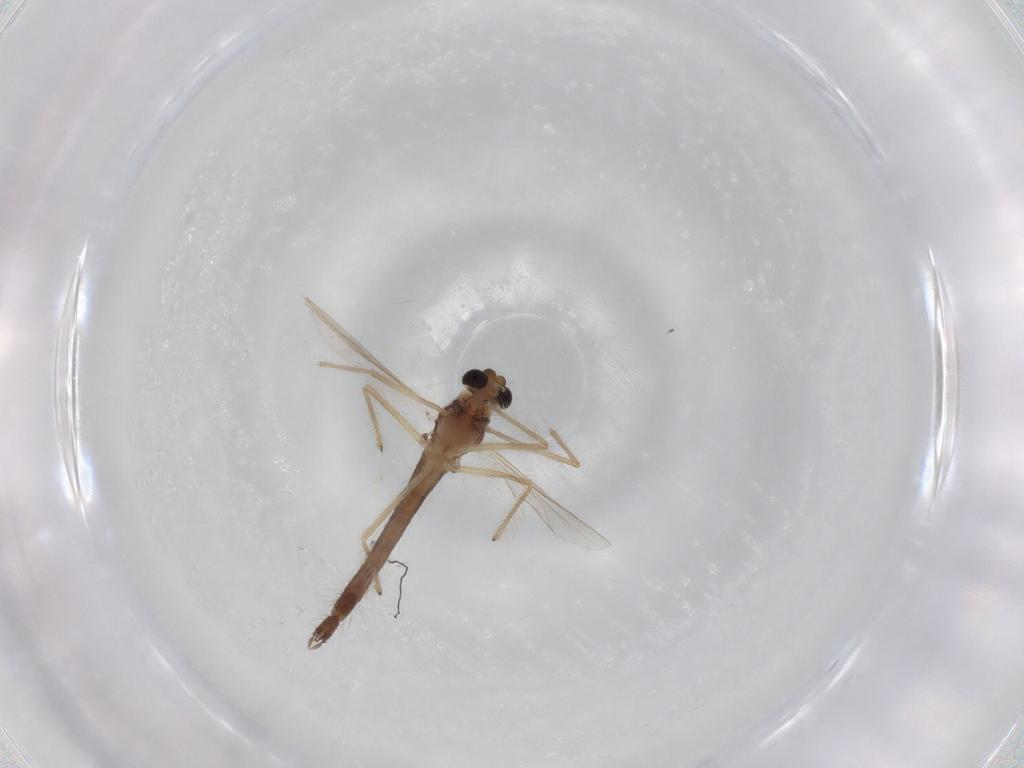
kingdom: Animalia
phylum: Arthropoda
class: Insecta
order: Diptera
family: Chironomidae
